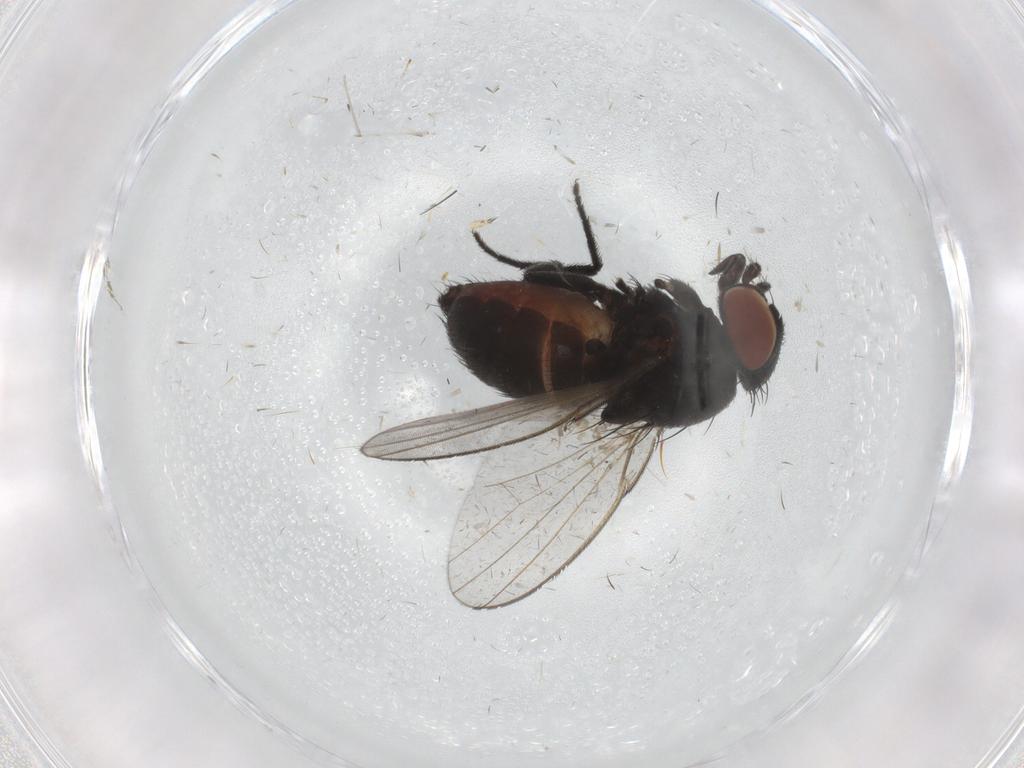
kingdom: Animalia
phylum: Arthropoda
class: Insecta
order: Diptera
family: Milichiidae
